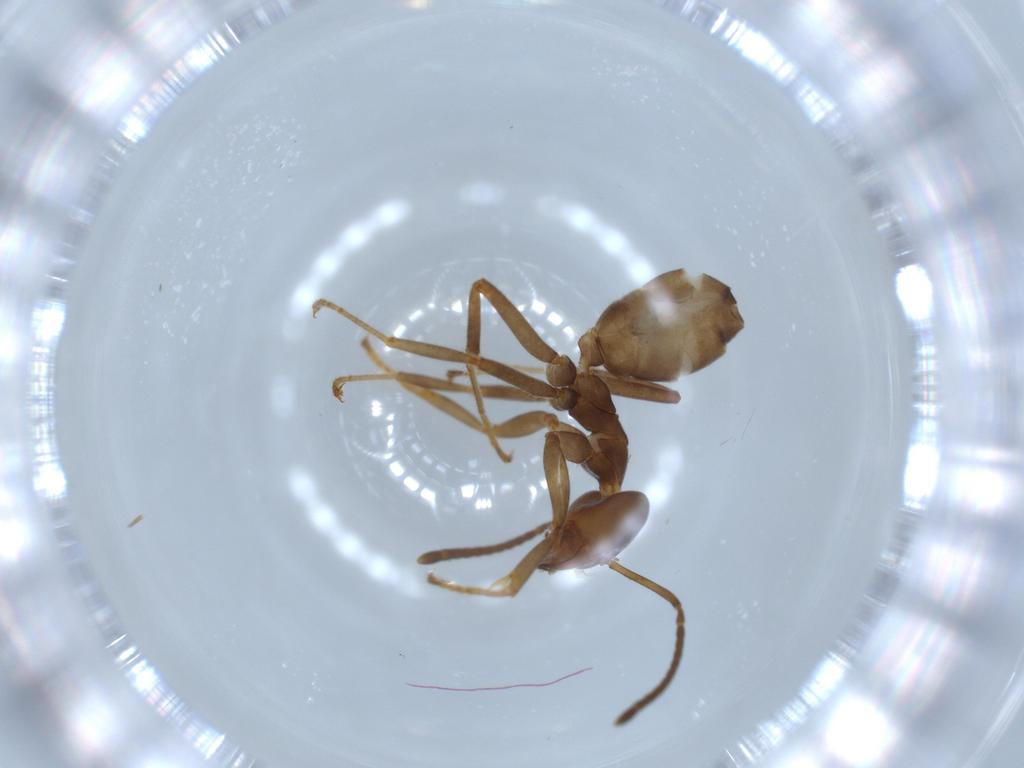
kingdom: Animalia
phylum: Arthropoda
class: Insecta
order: Hymenoptera
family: Formicidae
